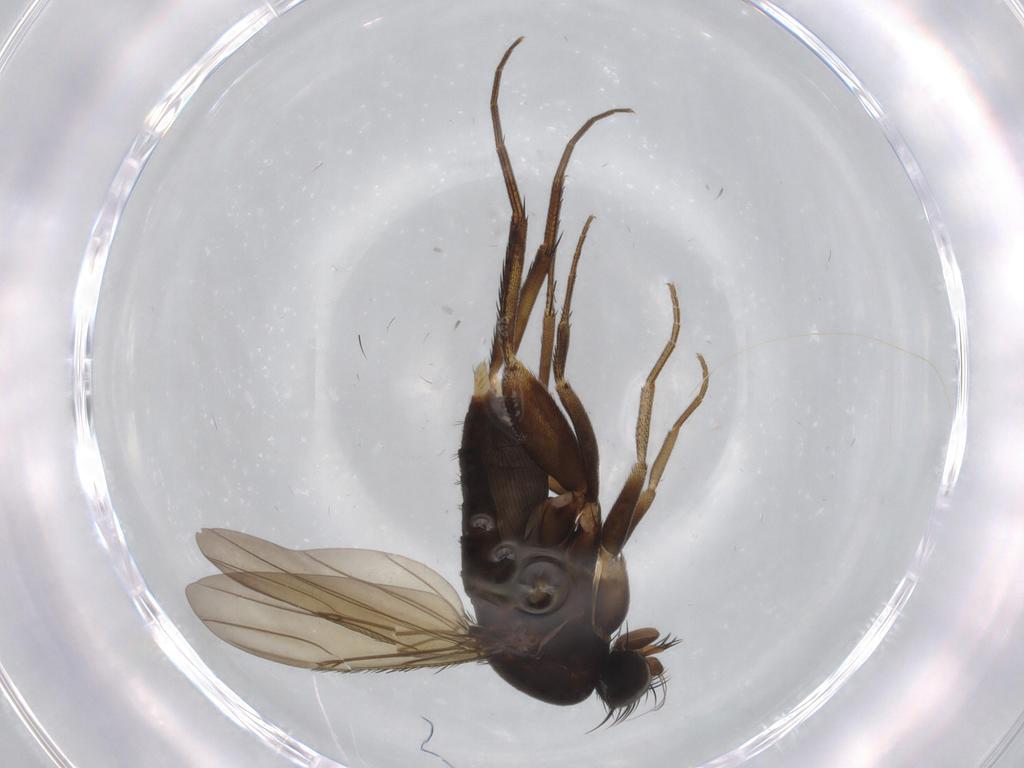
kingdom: Animalia
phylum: Arthropoda
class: Insecta
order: Diptera
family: Phoridae
